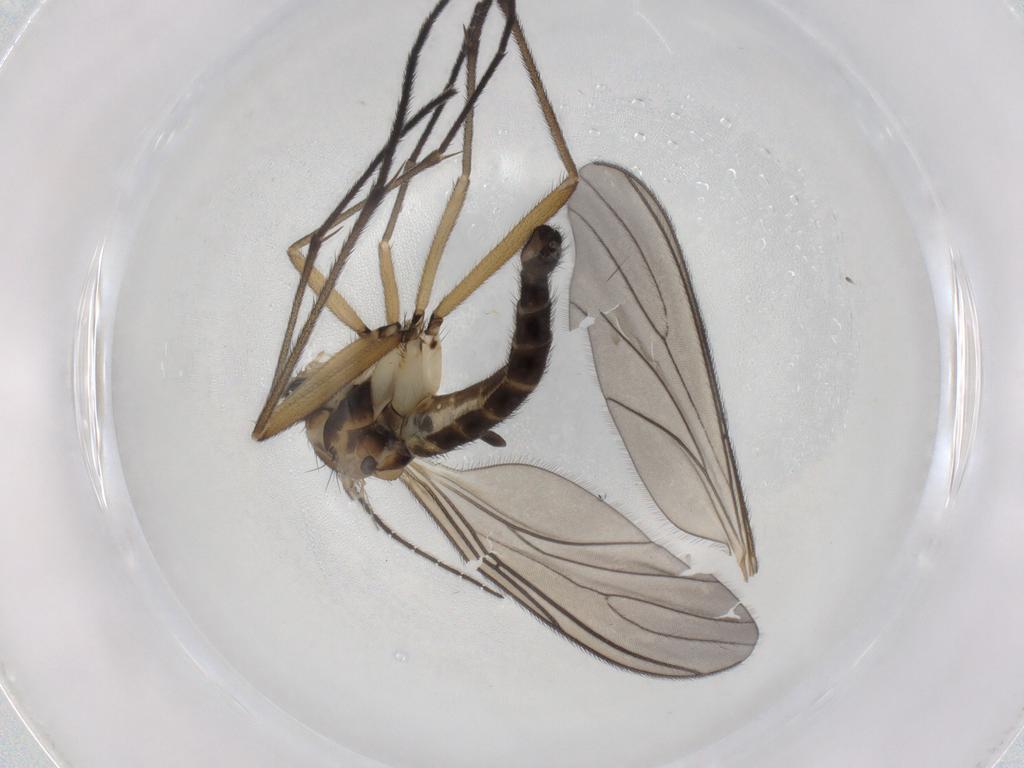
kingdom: Animalia
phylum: Arthropoda
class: Insecta
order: Diptera
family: Sciaridae
